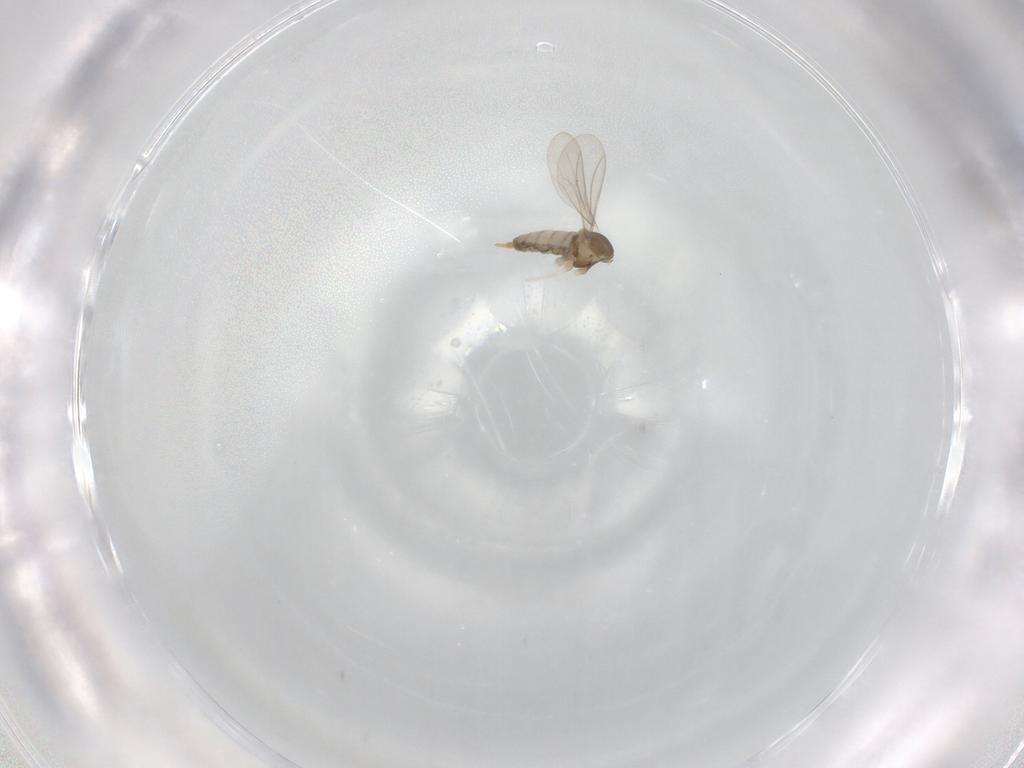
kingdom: Animalia
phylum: Arthropoda
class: Insecta
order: Diptera
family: Cecidomyiidae
